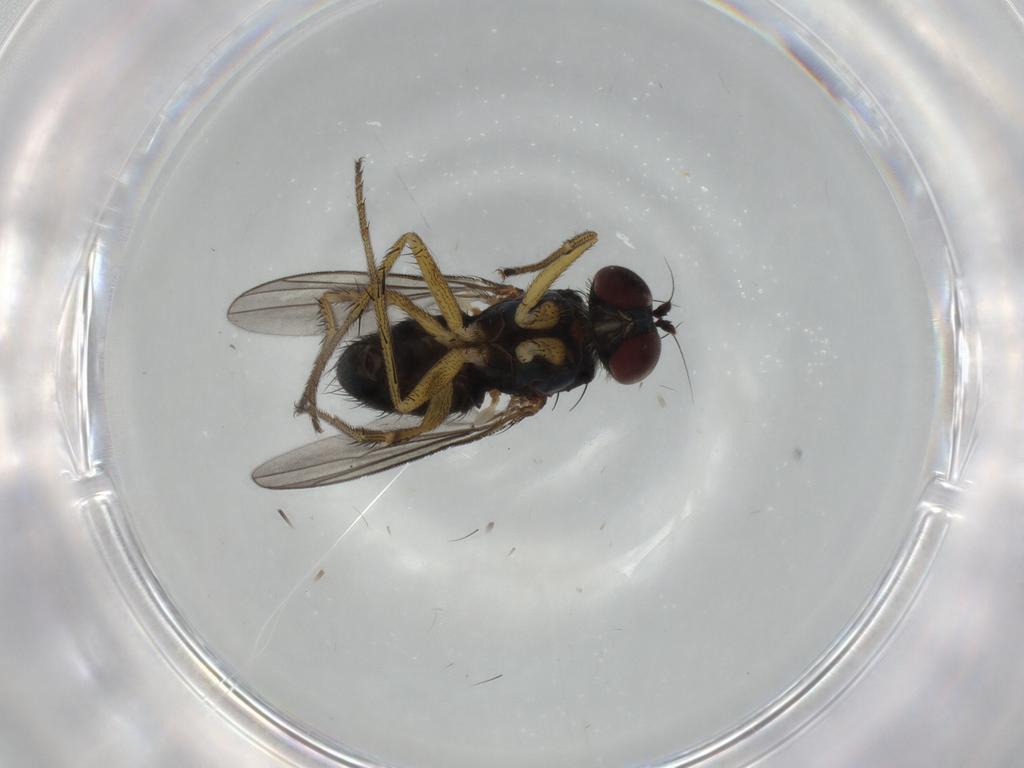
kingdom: Animalia
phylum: Arthropoda
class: Insecta
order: Diptera
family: Dolichopodidae
